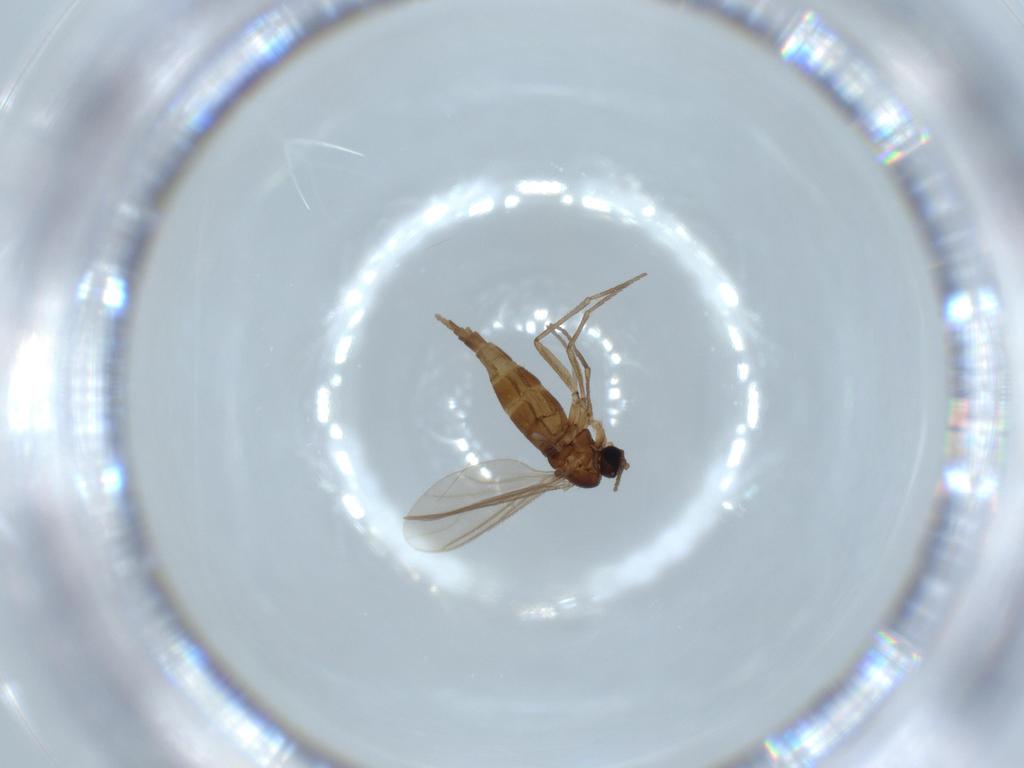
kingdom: Animalia
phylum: Arthropoda
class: Insecta
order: Diptera
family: Sciaridae
